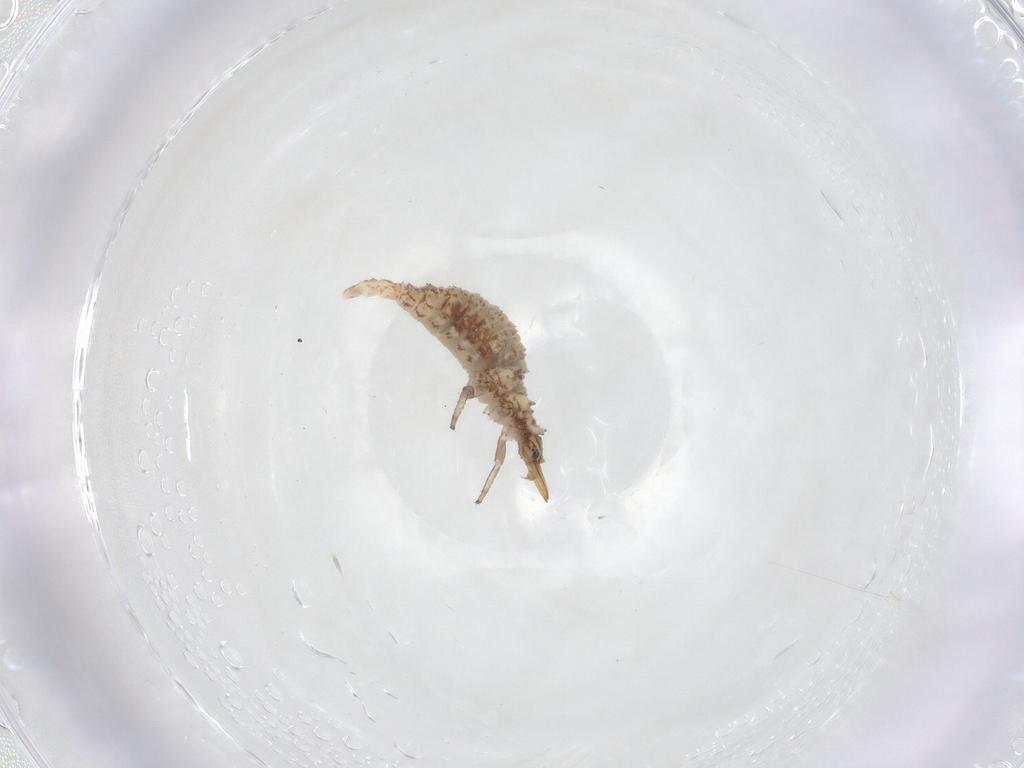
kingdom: Animalia
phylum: Arthropoda
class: Insecta
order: Neuroptera
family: Hemerobiidae
